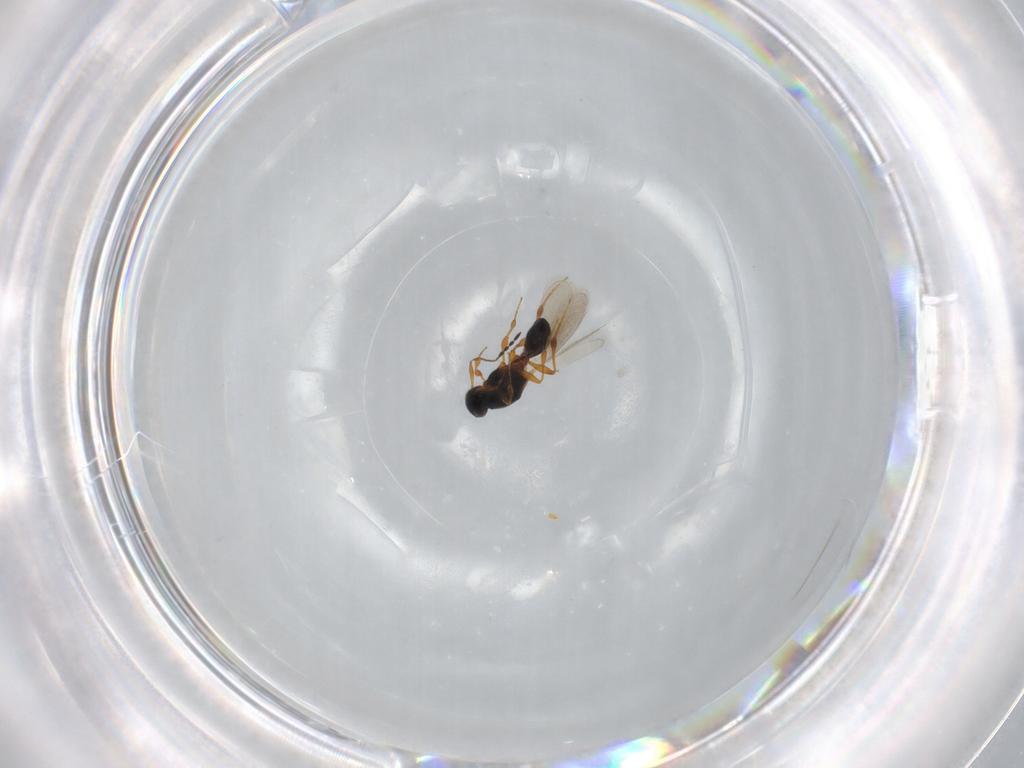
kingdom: Animalia
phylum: Arthropoda
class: Insecta
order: Hymenoptera
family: Diapriidae
